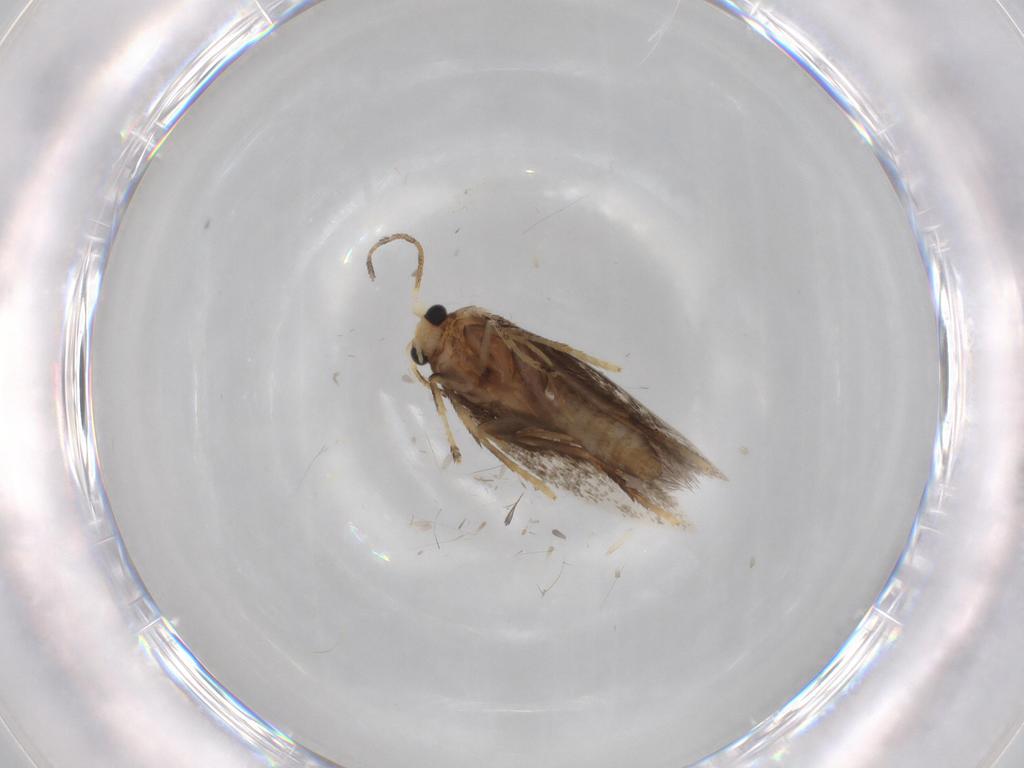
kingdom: Animalia
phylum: Arthropoda
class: Insecta
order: Lepidoptera
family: Nepticulidae
